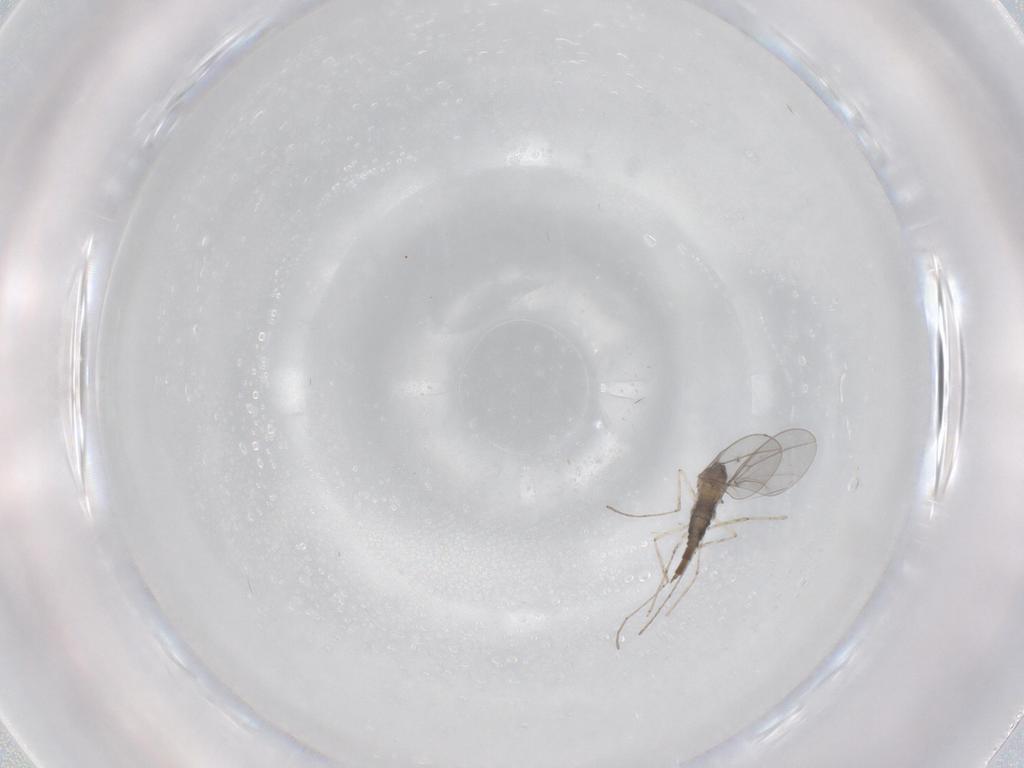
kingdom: Animalia
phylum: Arthropoda
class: Insecta
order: Diptera
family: Cecidomyiidae
